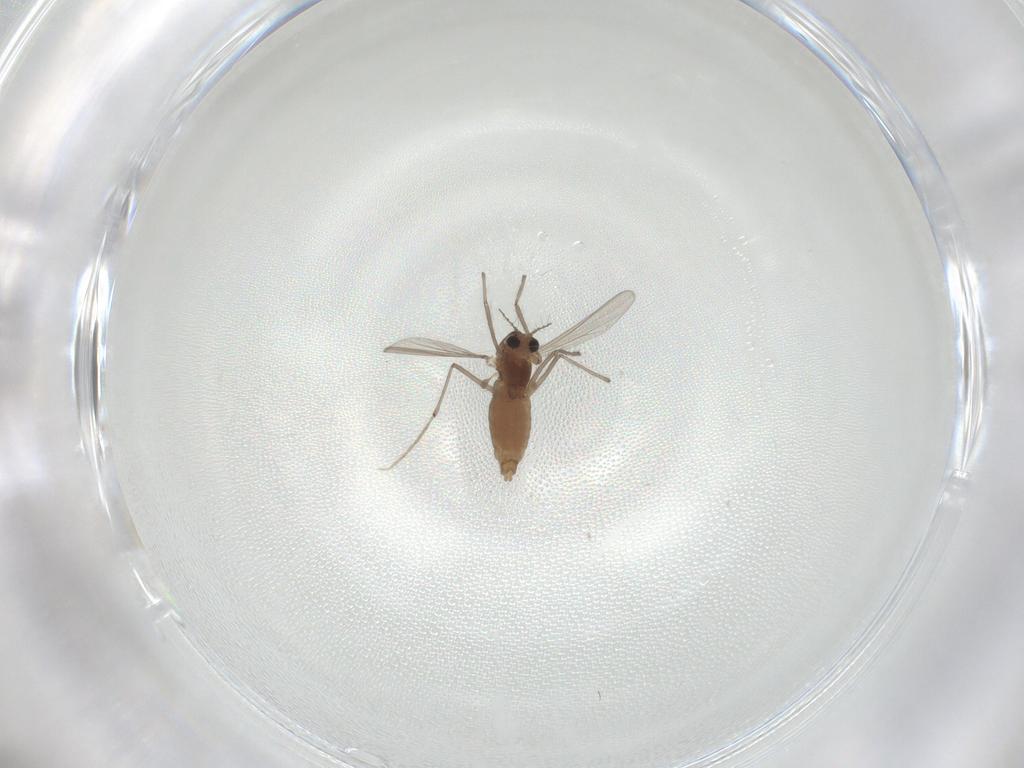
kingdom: Animalia
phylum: Arthropoda
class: Insecta
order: Diptera
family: Chironomidae
